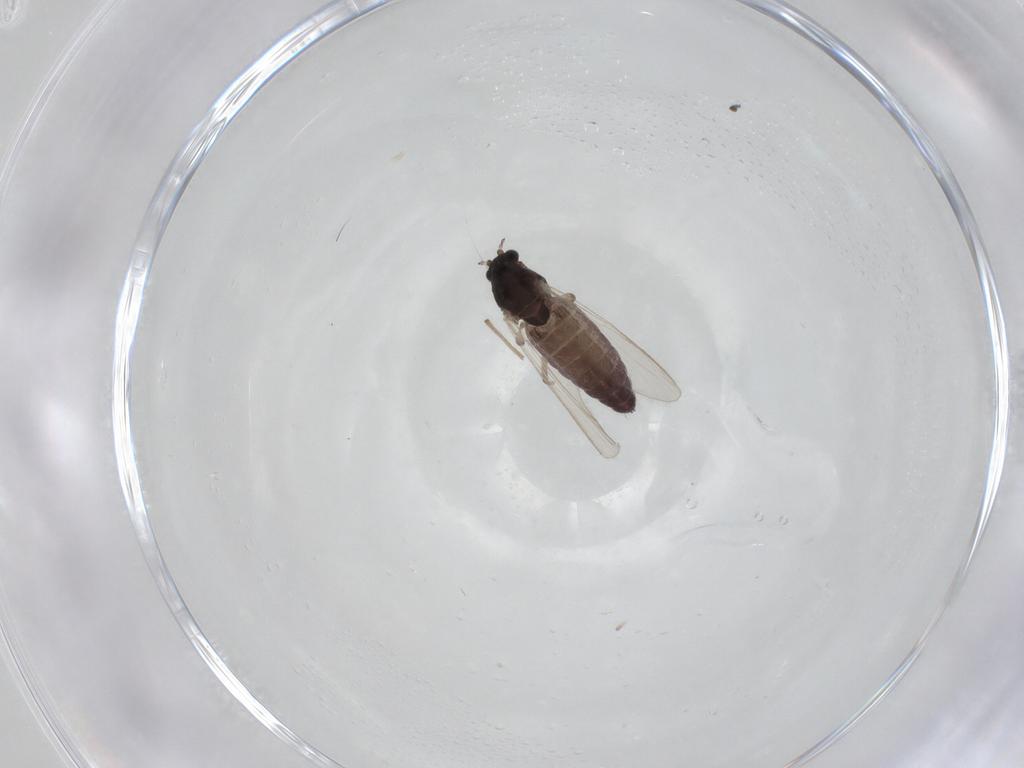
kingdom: Animalia
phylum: Arthropoda
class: Insecta
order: Diptera
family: Chironomidae
